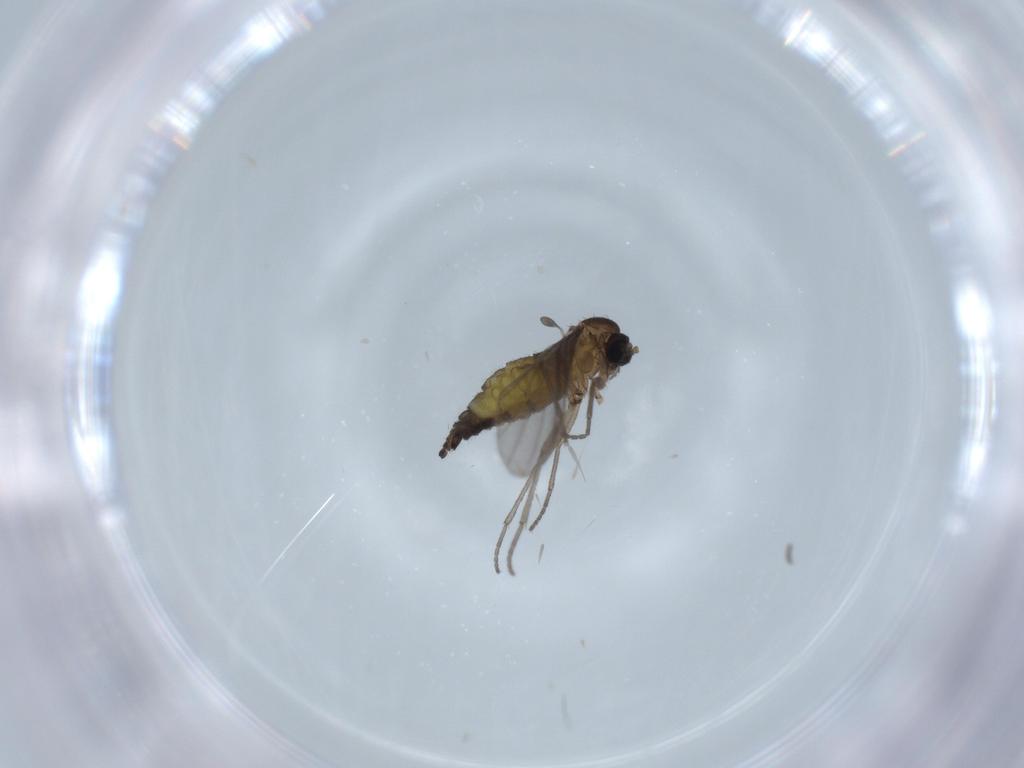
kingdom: Animalia
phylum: Arthropoda
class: Insecta
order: Diptera
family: Sciaridae
